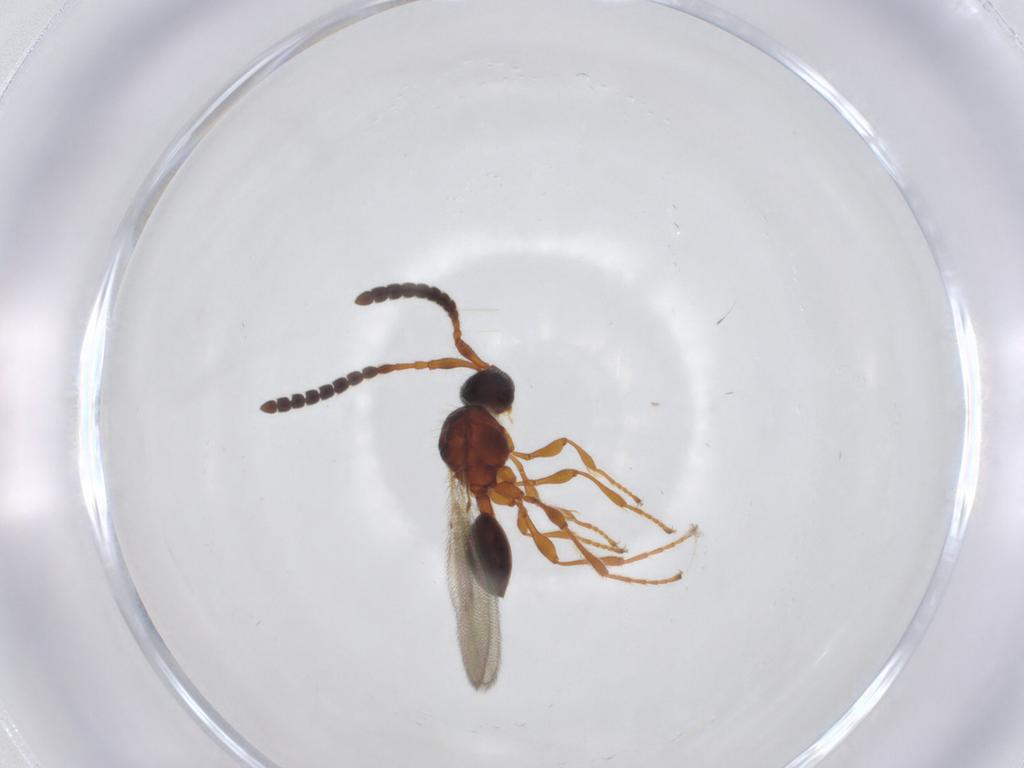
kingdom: Animalia
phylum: Arthropoda
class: Insecta
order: Hymenoptera
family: Diapriidae
